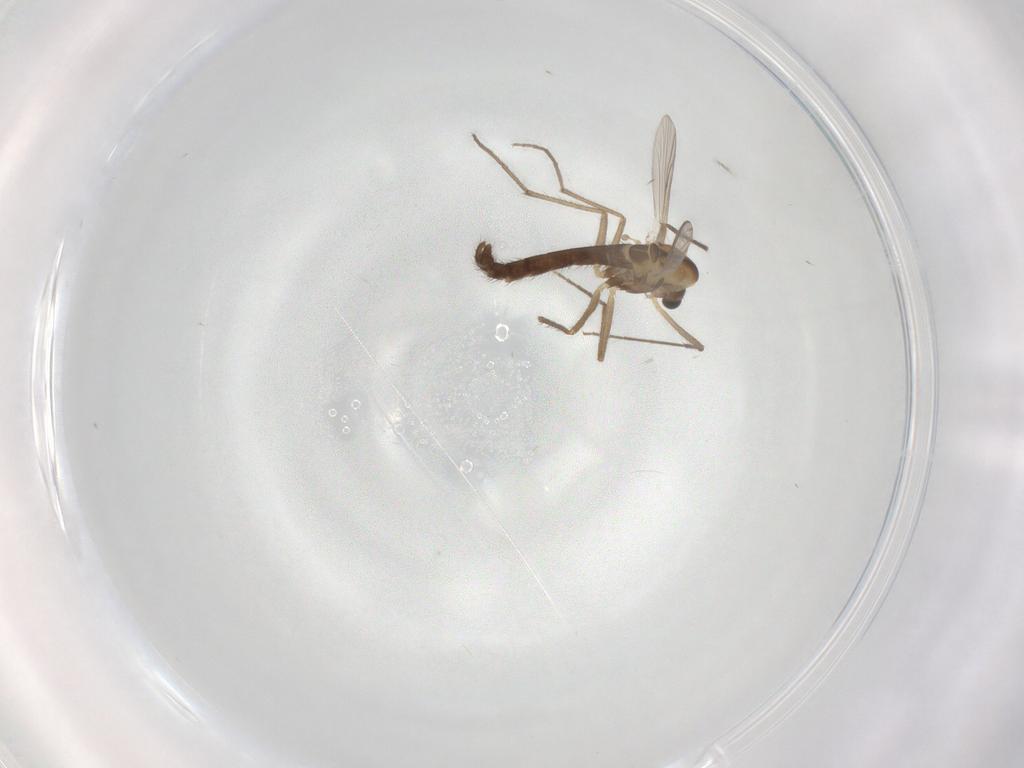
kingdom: Animalia
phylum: Arthropoda
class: Insecta
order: Diptera
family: Chironomidae
